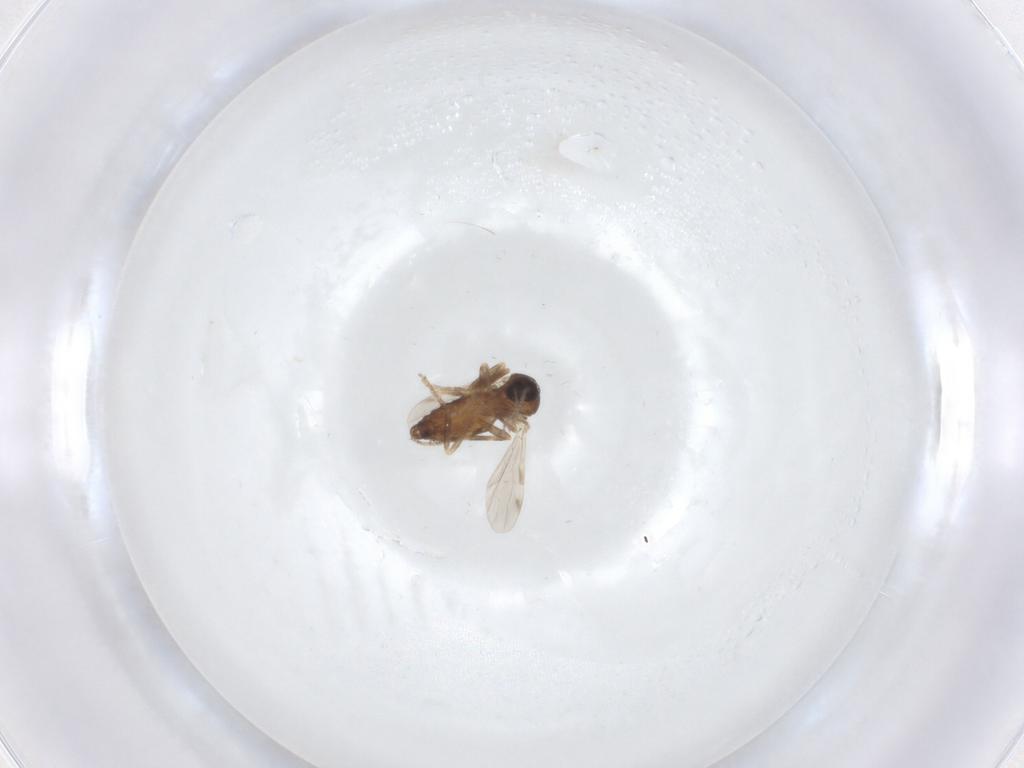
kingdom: Animalia
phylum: Arthropoda
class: Insecta
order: Diptera
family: Ceratopogonidae
